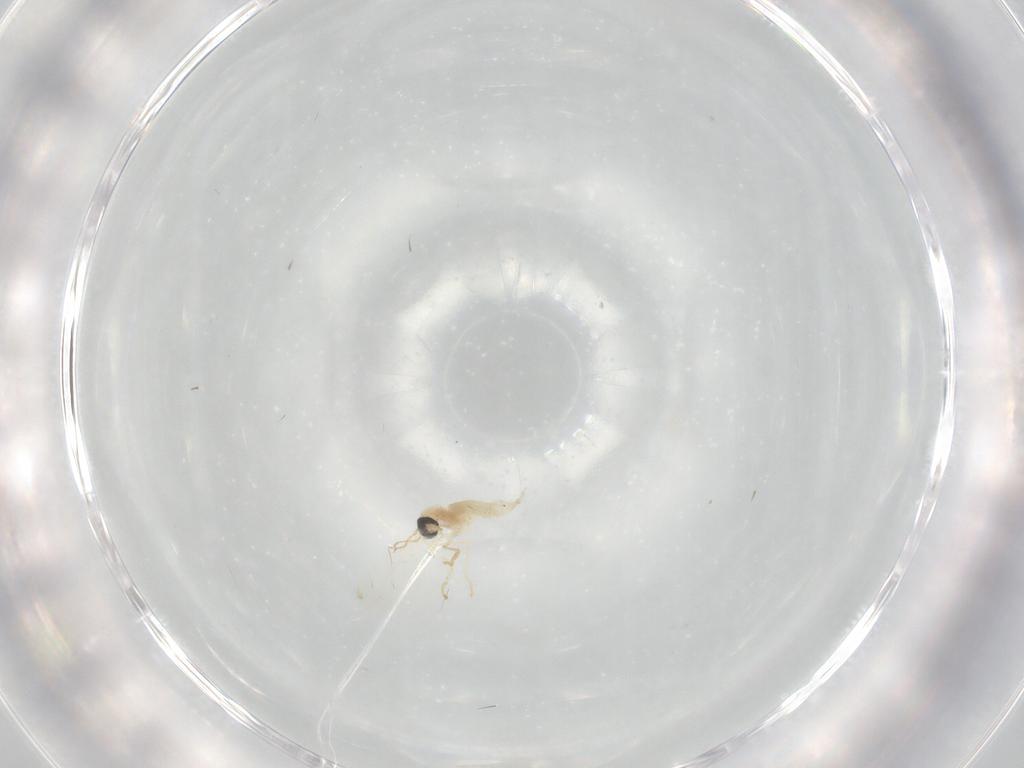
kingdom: Animalia
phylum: Arthropoda
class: Insecta
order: Diptera
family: Cecidomyiidae
